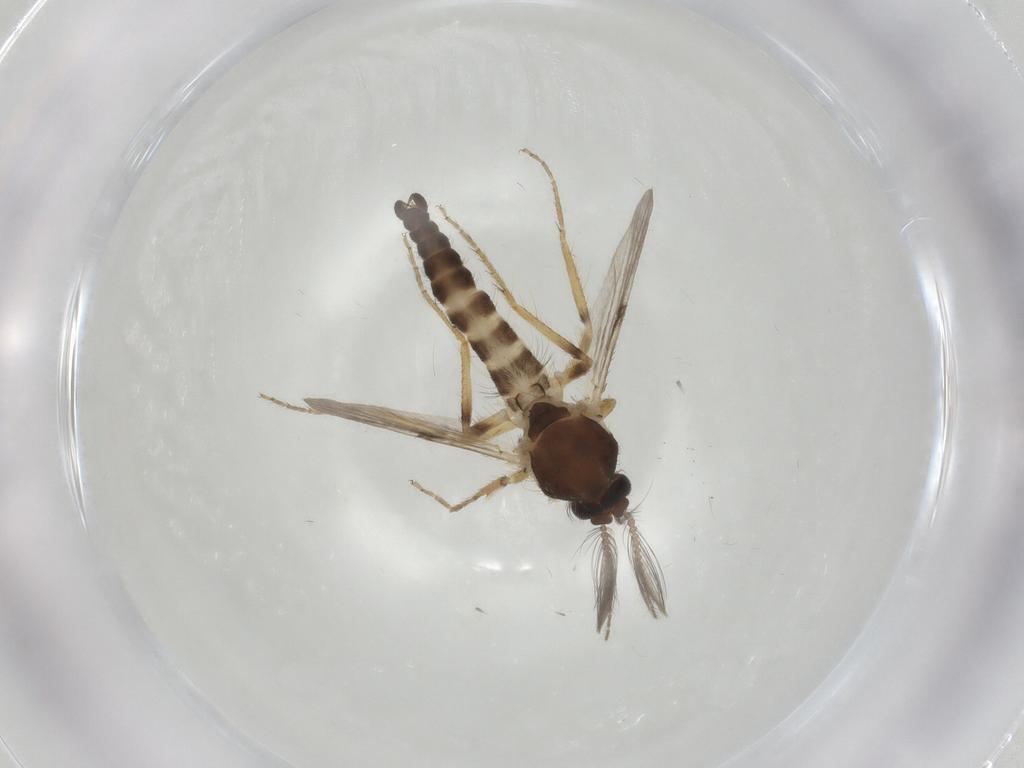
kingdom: Animalia
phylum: Arthropoda
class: Insecta
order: Diptera
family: Ceratopogonidae
